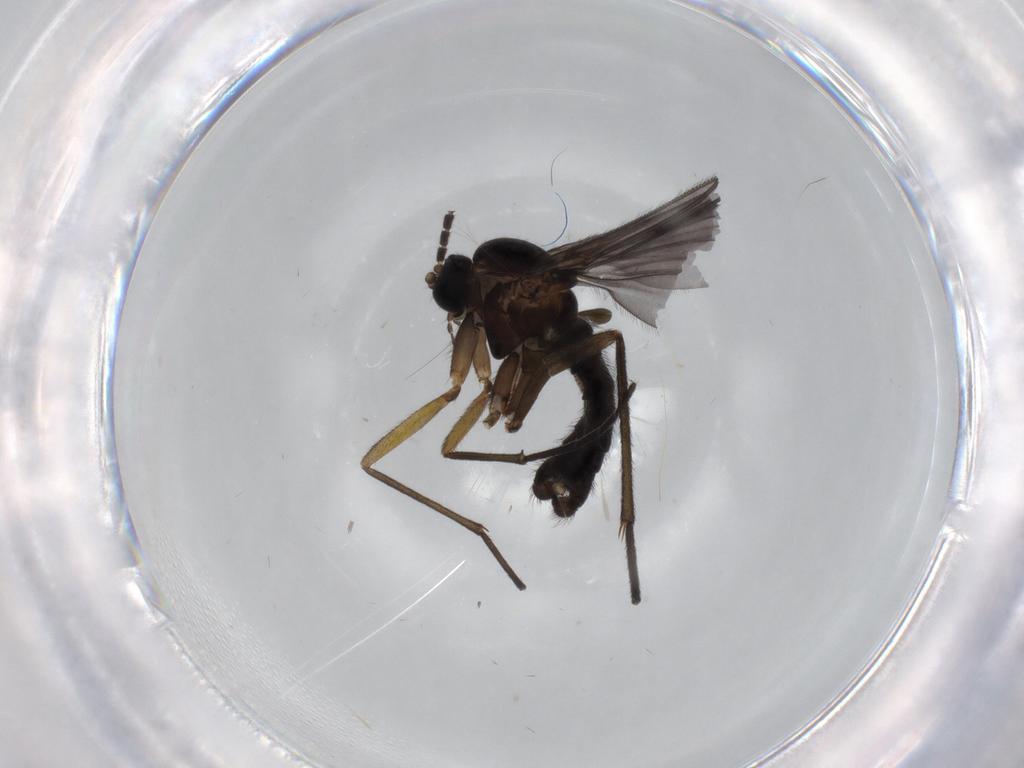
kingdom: Animalia
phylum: Arthropoda
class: Insecta
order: Diptera
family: Sciaridae
